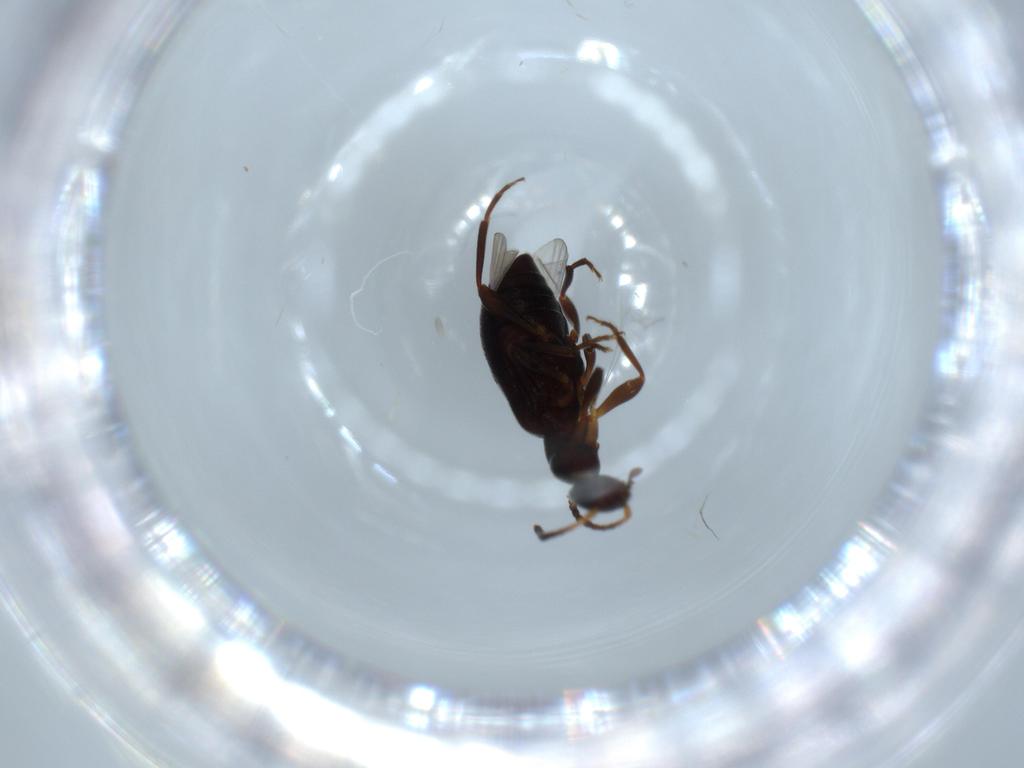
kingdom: Animalia
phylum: Arthropoda
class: Insecta
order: Coleoptera
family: Anthicidae
